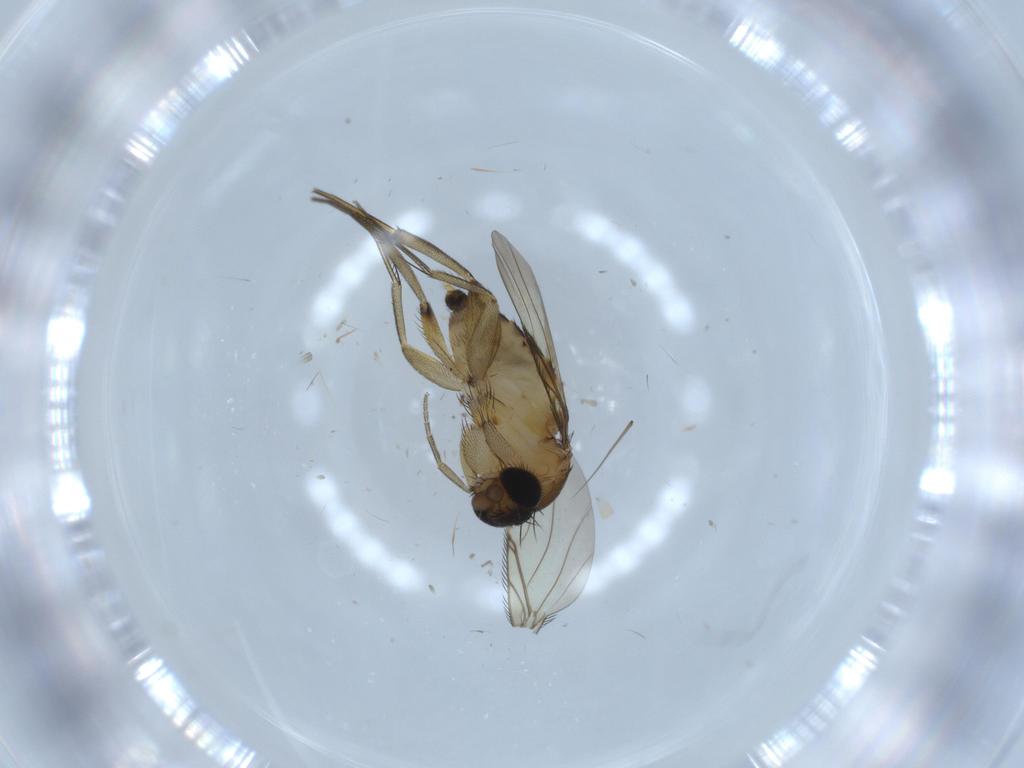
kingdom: Animalia
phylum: Arthropoda
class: Insecta
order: Diptera
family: Phoridae
